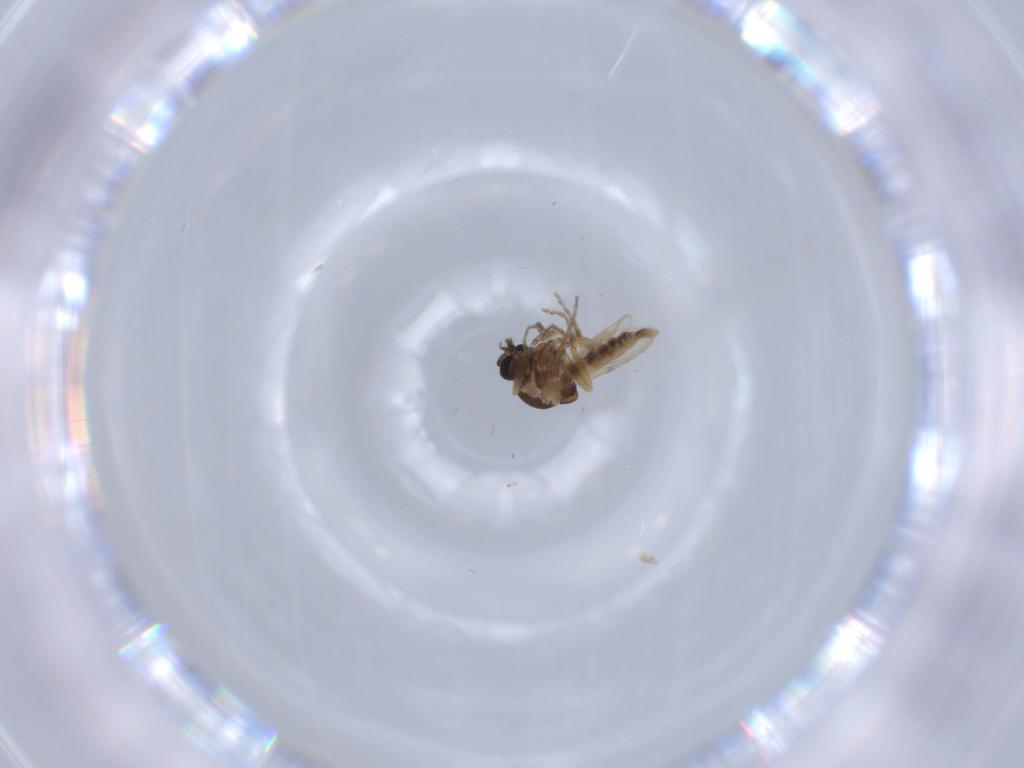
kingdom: Animalia
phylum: Arthropoda
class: Insecta
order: Diptera
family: Ceratopogonidae
